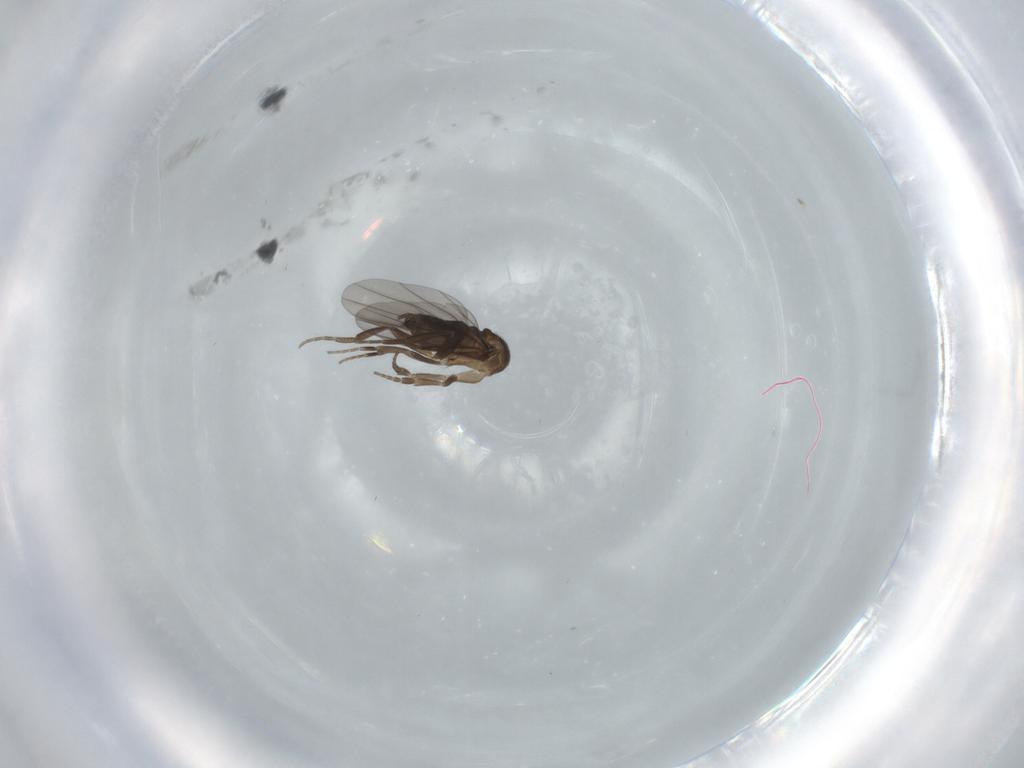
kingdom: Animalia
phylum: Arthropoda
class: Insecta
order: Diptera
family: Phoridae
